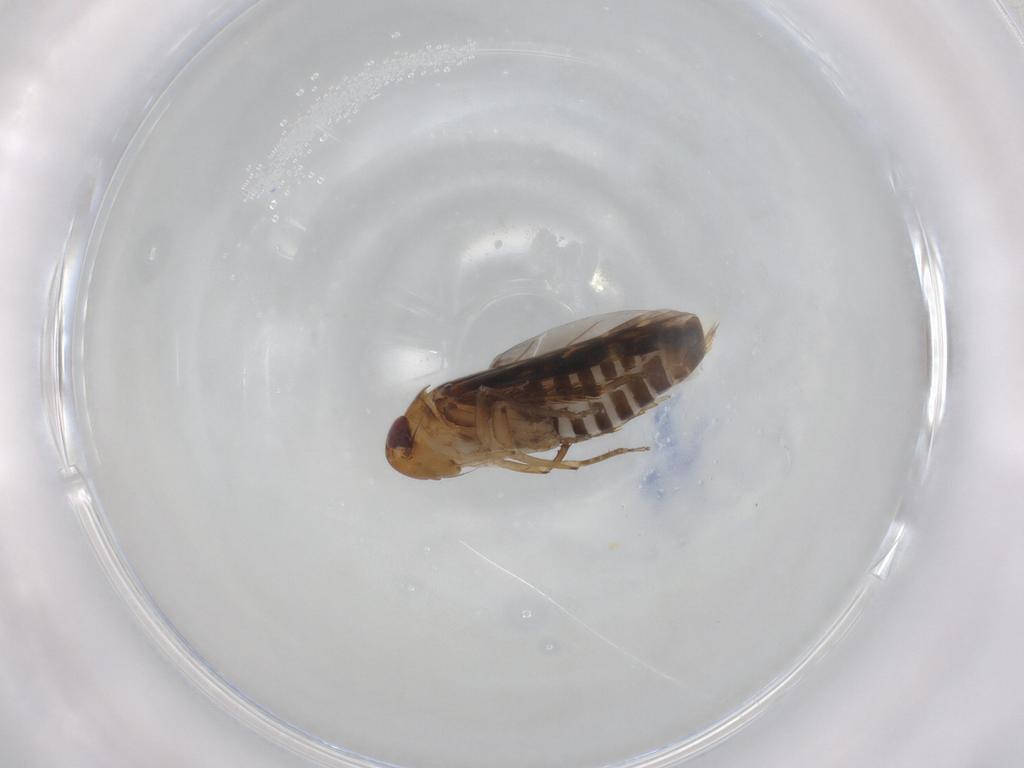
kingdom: Animalia
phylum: Arthropoda
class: Insecta
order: Hemiptera
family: Cicadellidae
